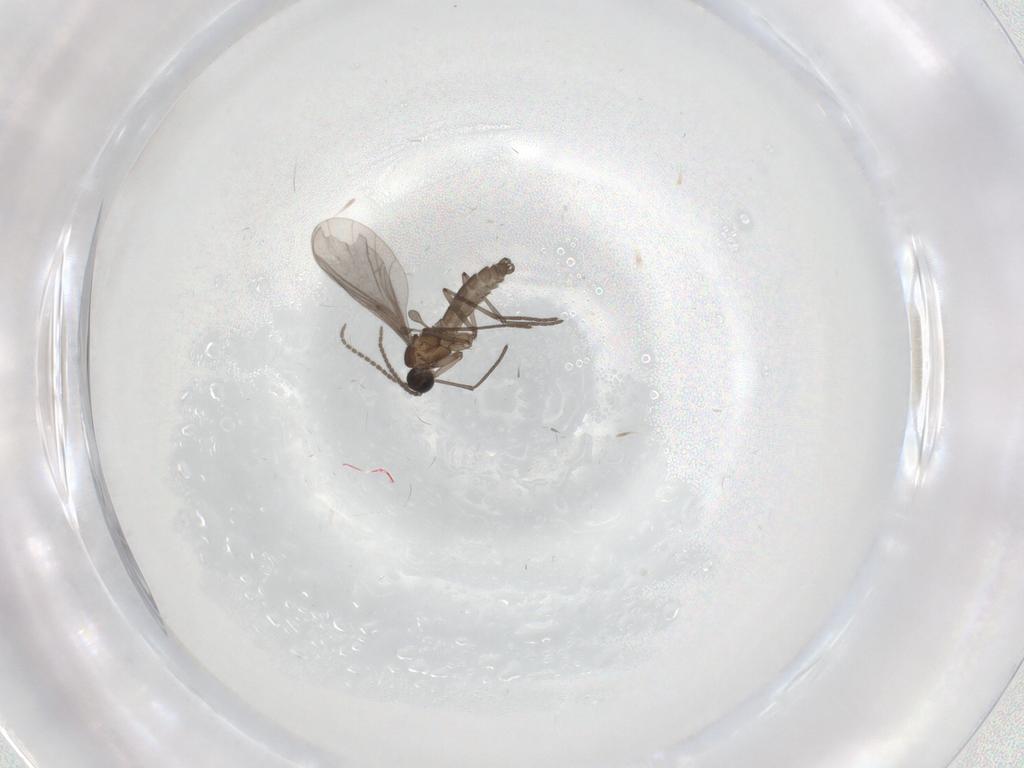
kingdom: Animalia
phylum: Arthropoda
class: Insecta
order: Diptera
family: Sciaridae
